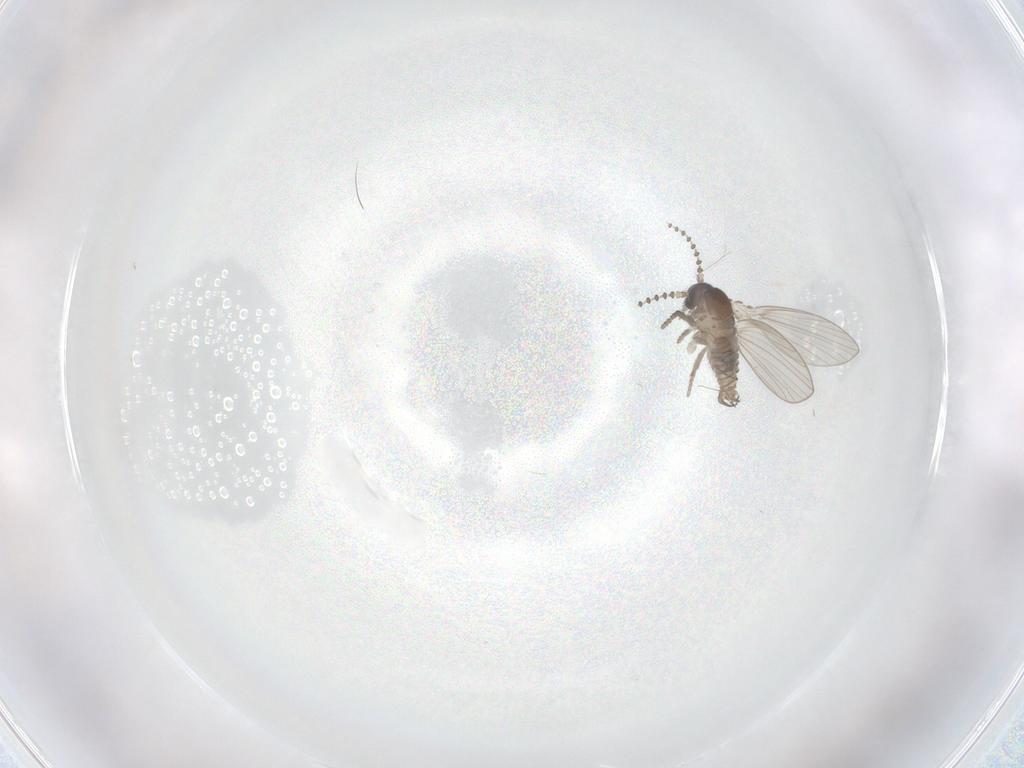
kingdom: Animalia
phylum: Arthropoda
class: Insecta
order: Diptera
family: Psychodidae
